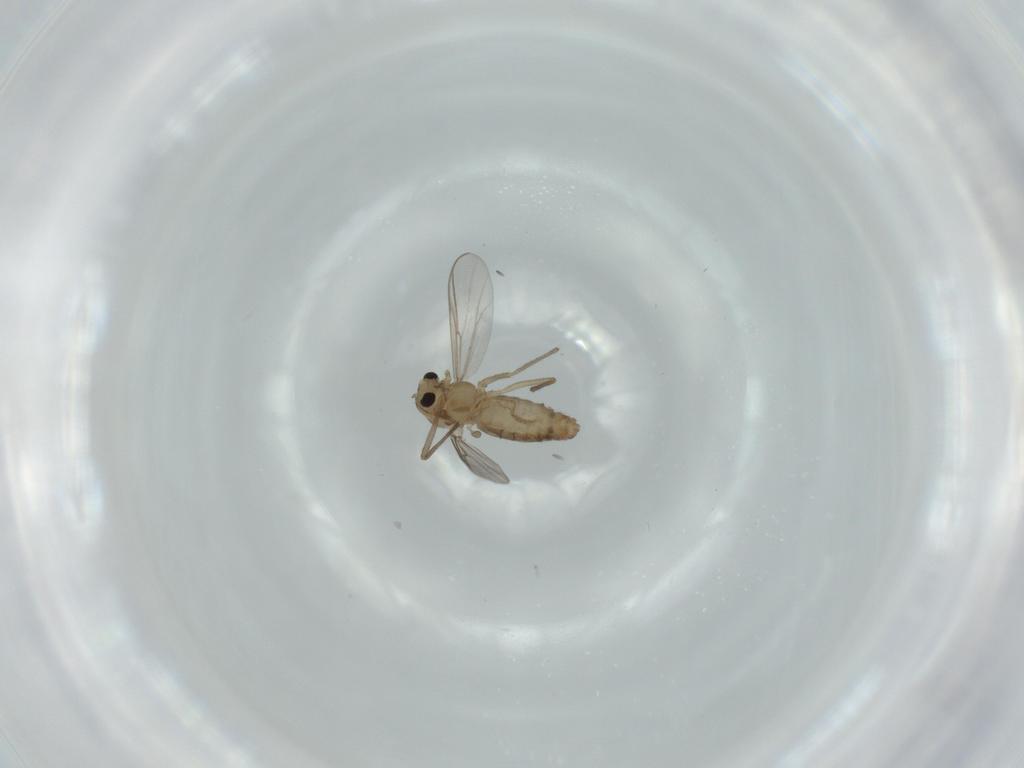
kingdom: Animalia
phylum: Arthropoda
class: Insecta
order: Diptera
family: Chironomidae
